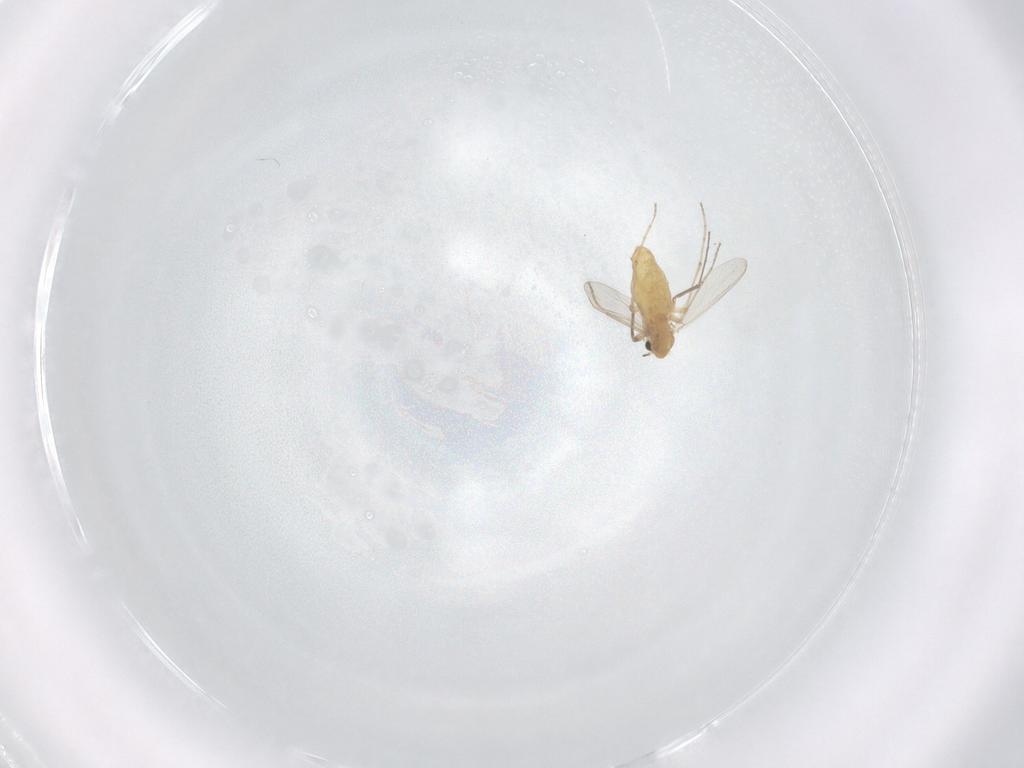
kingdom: Animalia
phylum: Arthropoda
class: Insecta
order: Diptera
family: Chironomidae
